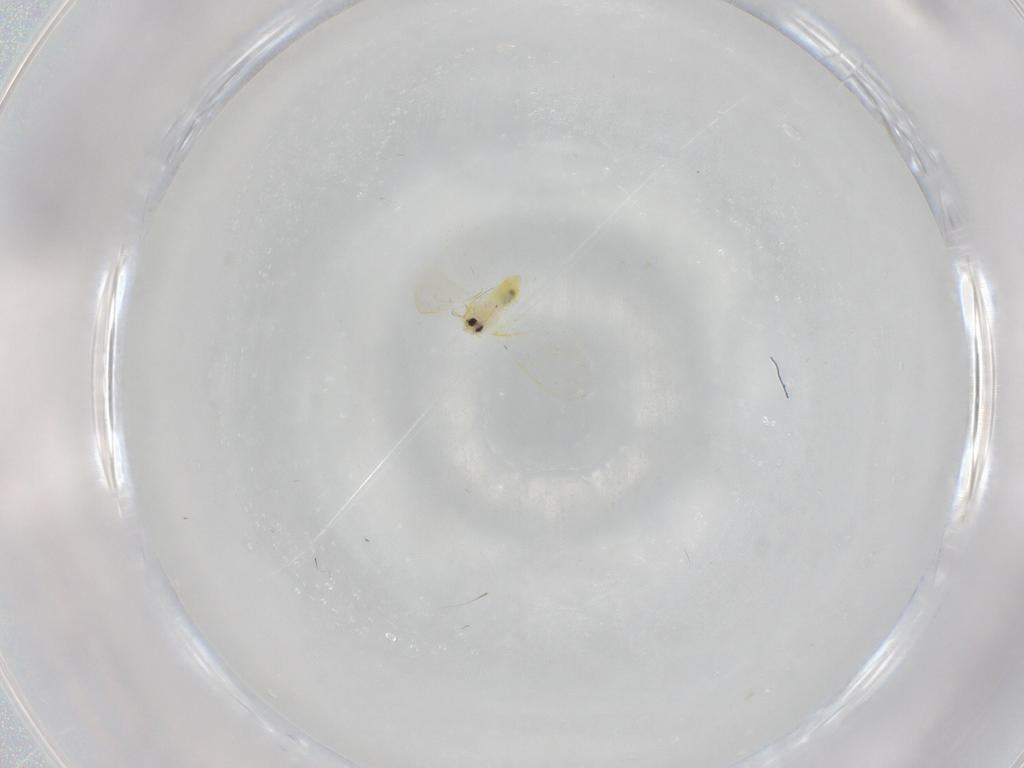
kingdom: Animalia
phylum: Arthropoda
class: Insecta
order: Hemiptera
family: Aleyrodidae
